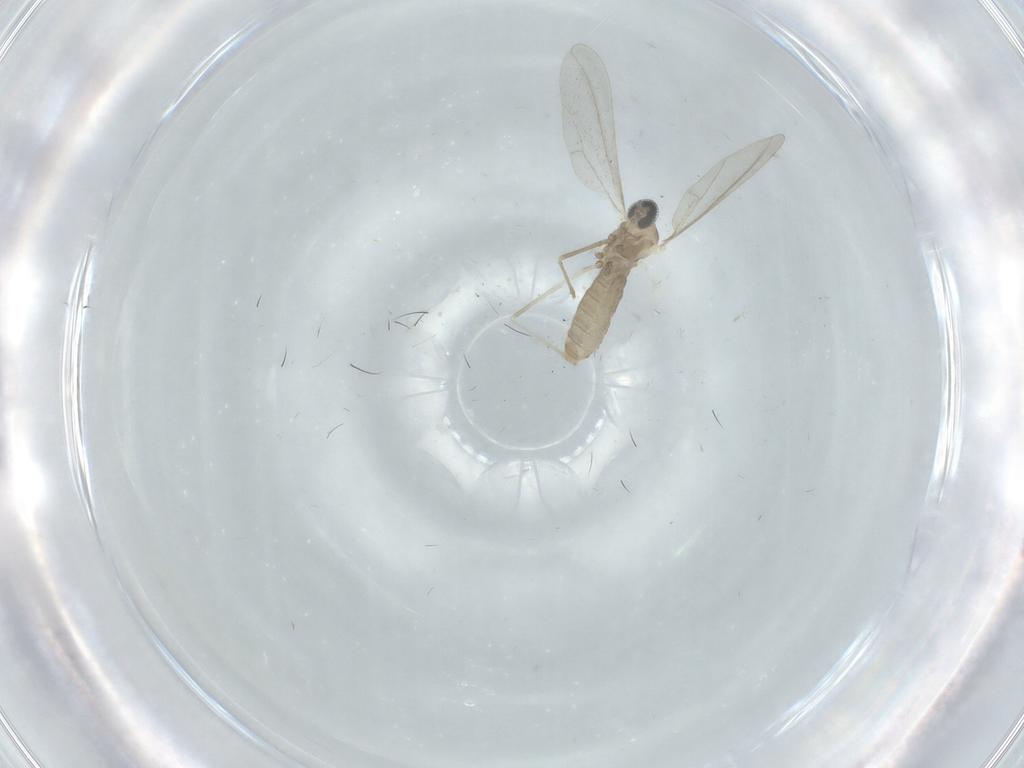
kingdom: Animalia
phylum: Arthropoda
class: Insecta
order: Diptera
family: Cecidomyiidae
